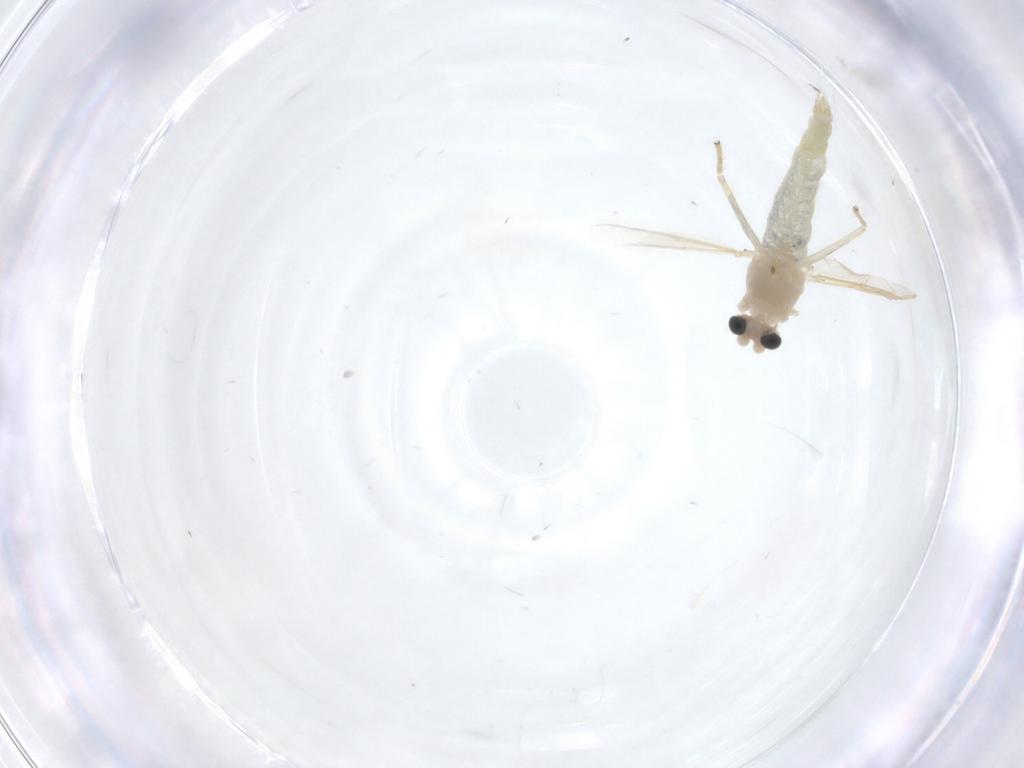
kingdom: Animalia
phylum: Arthropoda
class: Insecta
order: Diptera
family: Chironomidae
